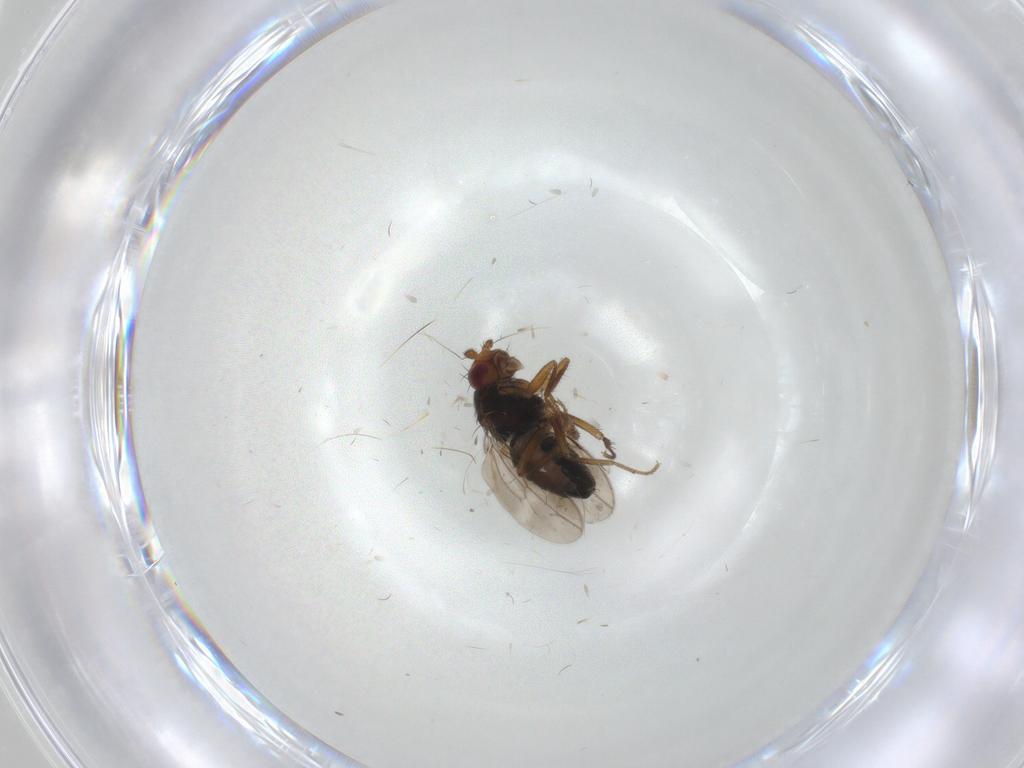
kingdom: Animalia
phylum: Arthropoda
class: Insecta
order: Diptera
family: Sphaeroceridae
